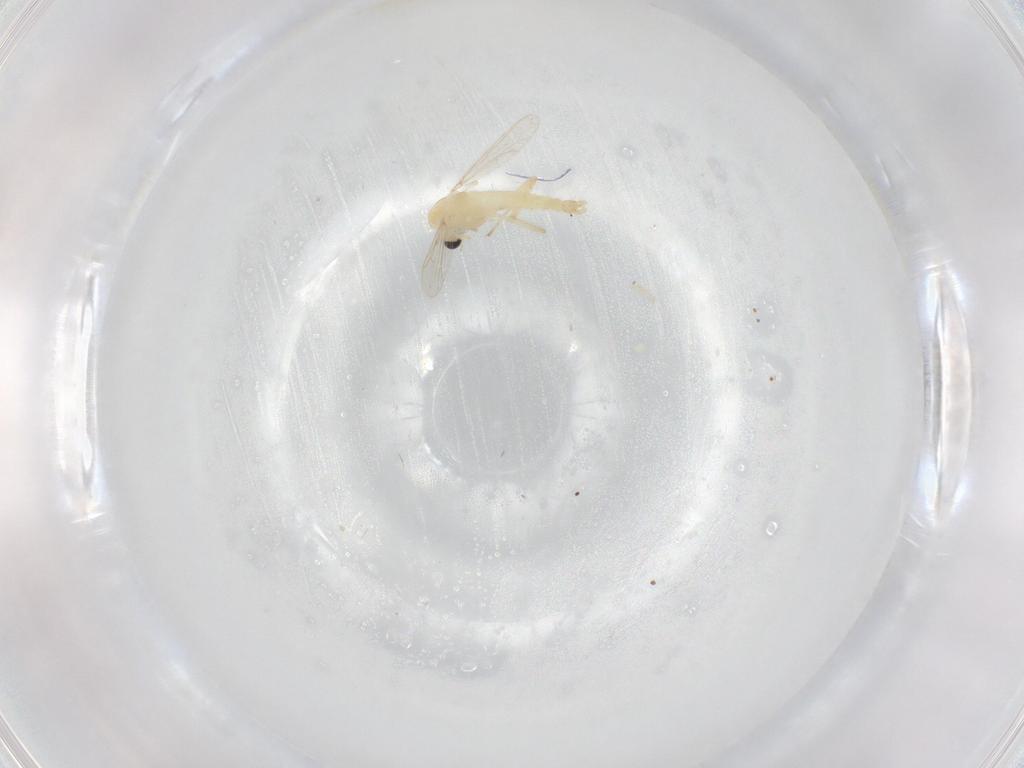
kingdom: Animalia
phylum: Arthropoda
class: Insecta
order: Diptera
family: Chironomidae
